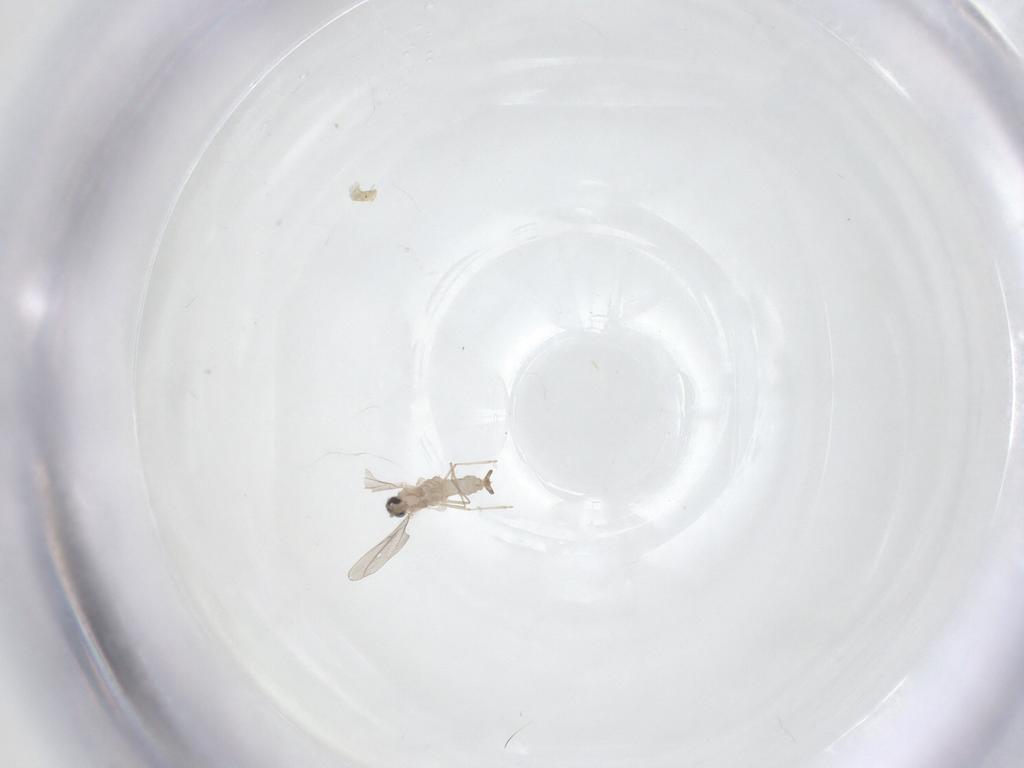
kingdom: Animalia
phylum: Arthropoda
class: Insecta
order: Diptera
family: Cecidomyiidae
